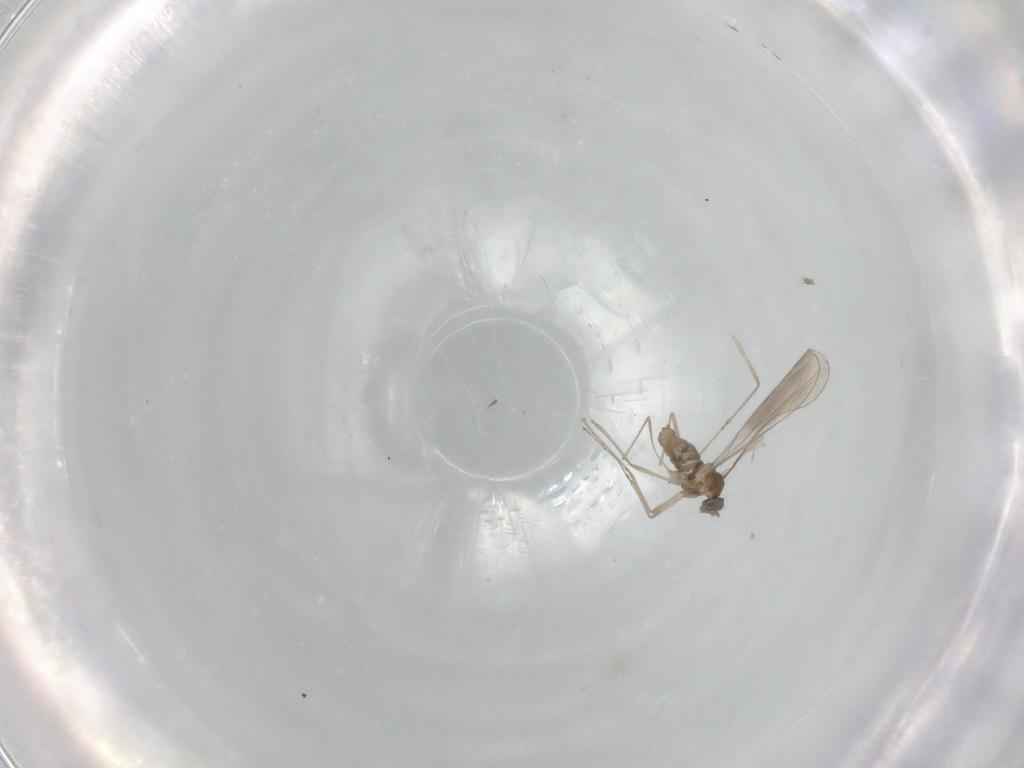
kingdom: Animalia
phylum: Arthropoda
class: Insecta
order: Diptera
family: Cecidomyiidae
